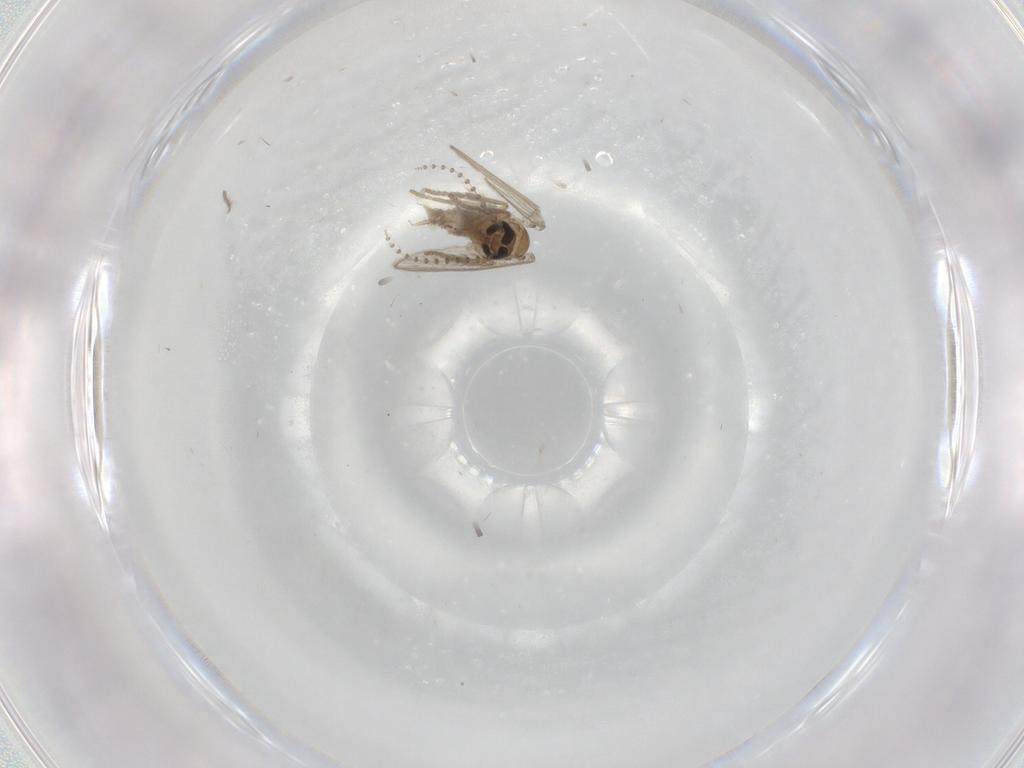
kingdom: Animalia
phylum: Arthropoda
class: Insecta
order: Diptera
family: Psychodidae
